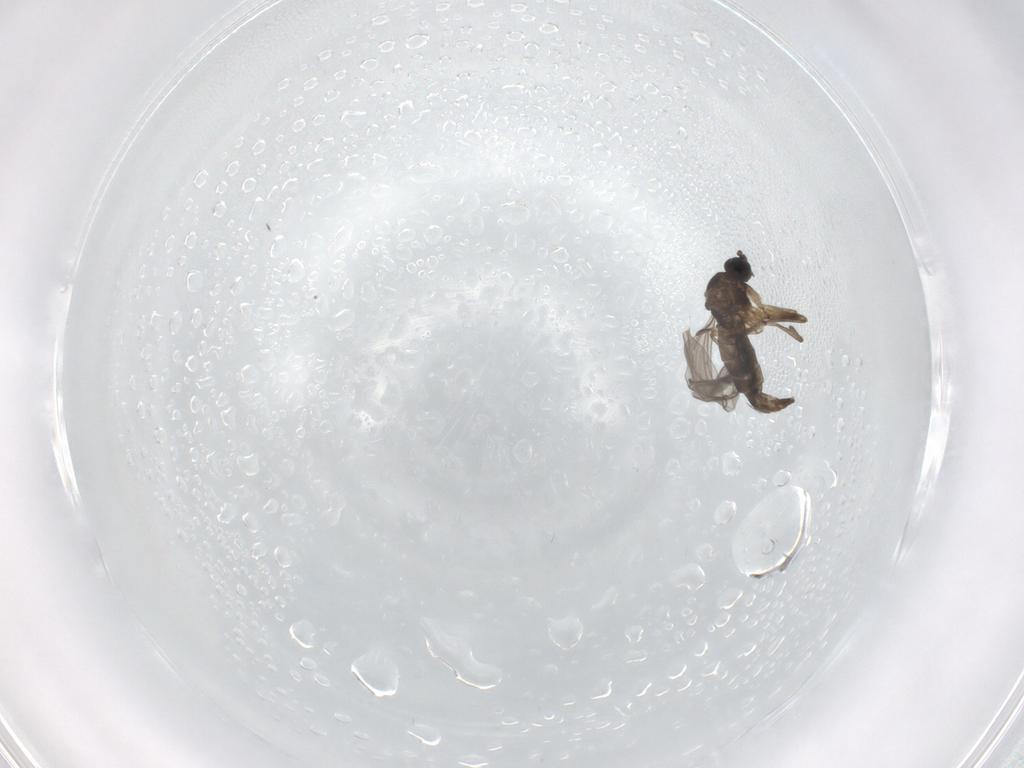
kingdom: Animalia
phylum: Arthropoda
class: Insecta
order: Diptera
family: Sciaridae
